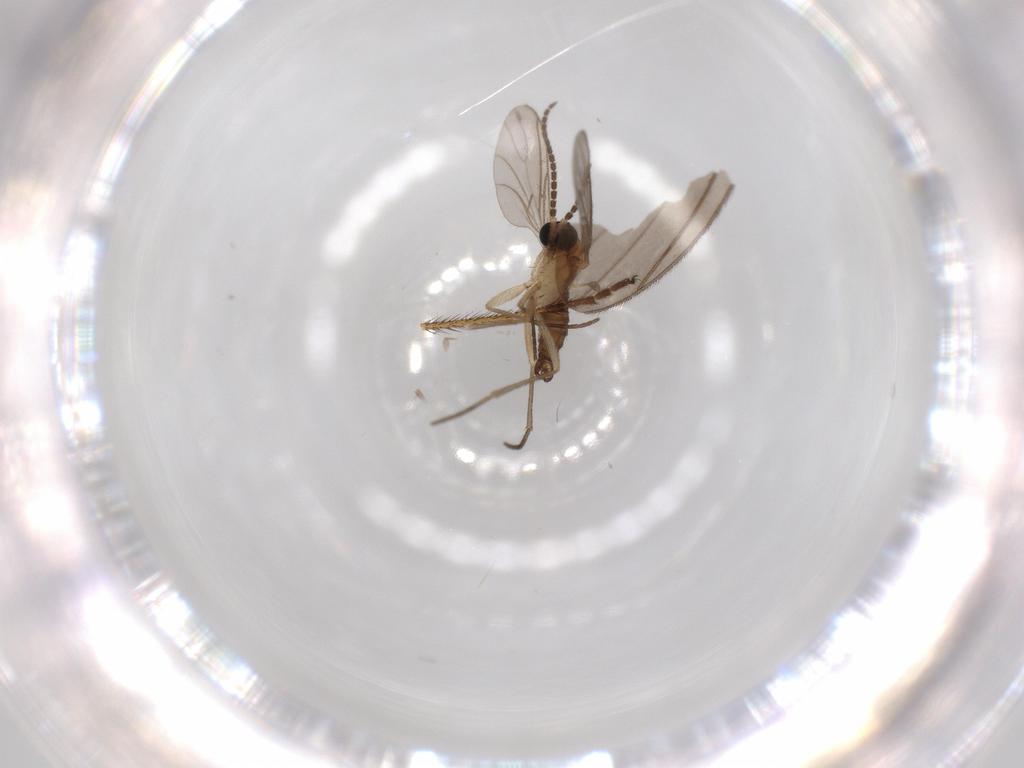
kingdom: Animalia
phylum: Arthropoda
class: Insecta
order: Diptera
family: Limoniidae
